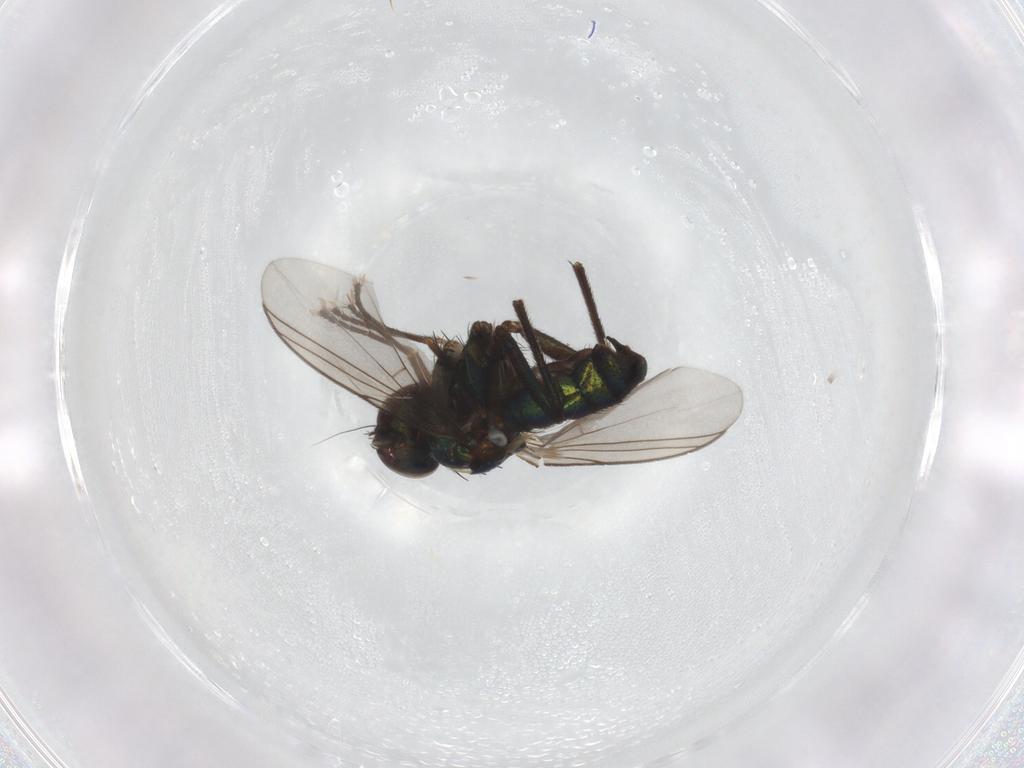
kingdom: Animalia
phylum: Arthropoda
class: Insecta
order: Diptera
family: Dolichopodidae
